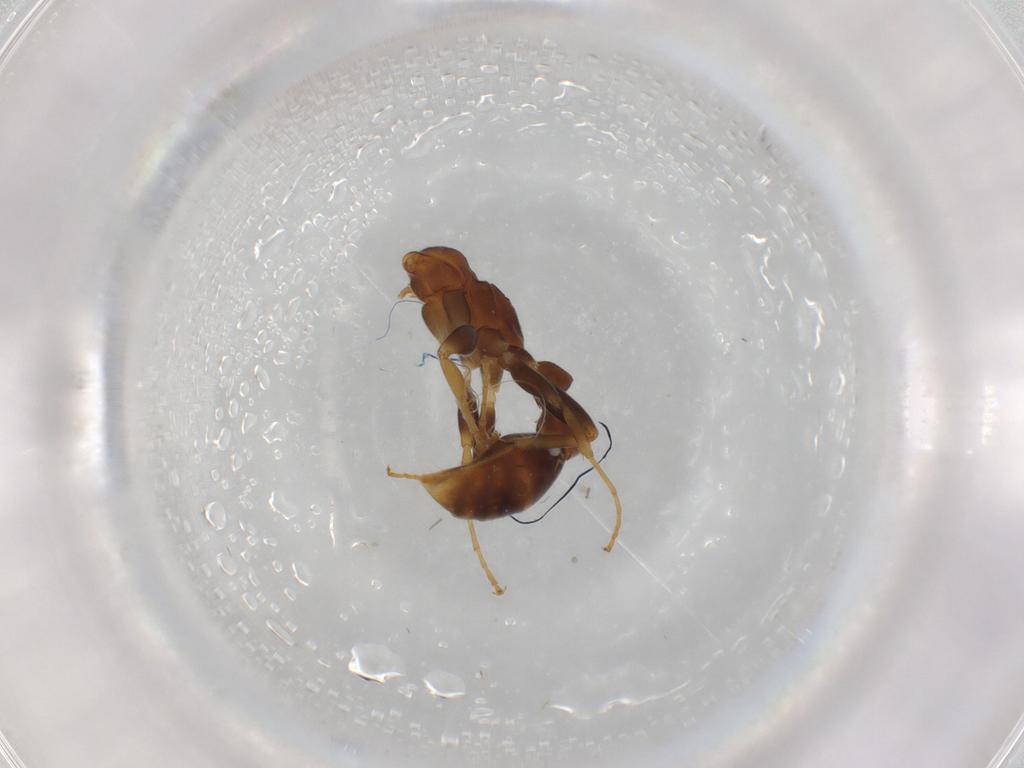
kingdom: Animalia
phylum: Arthropoda
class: Insecta
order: Hymenoptera
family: Formicidae
